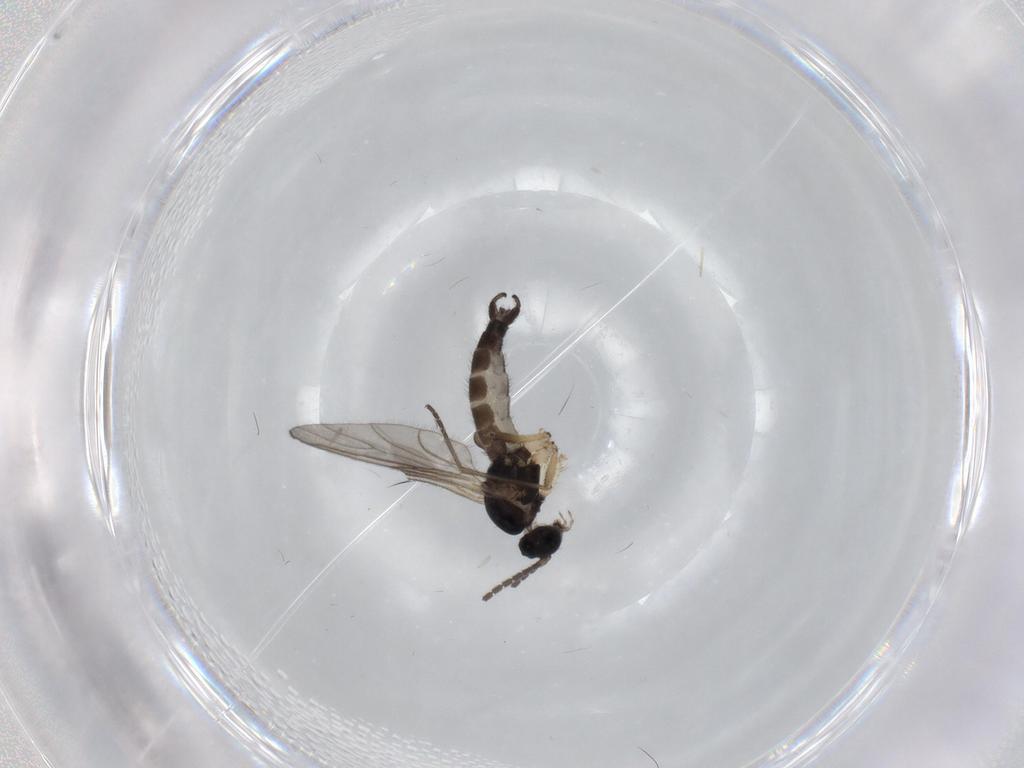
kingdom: Animalia
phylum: Arthropoda
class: Insecta
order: Diptera
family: Sciaridae
